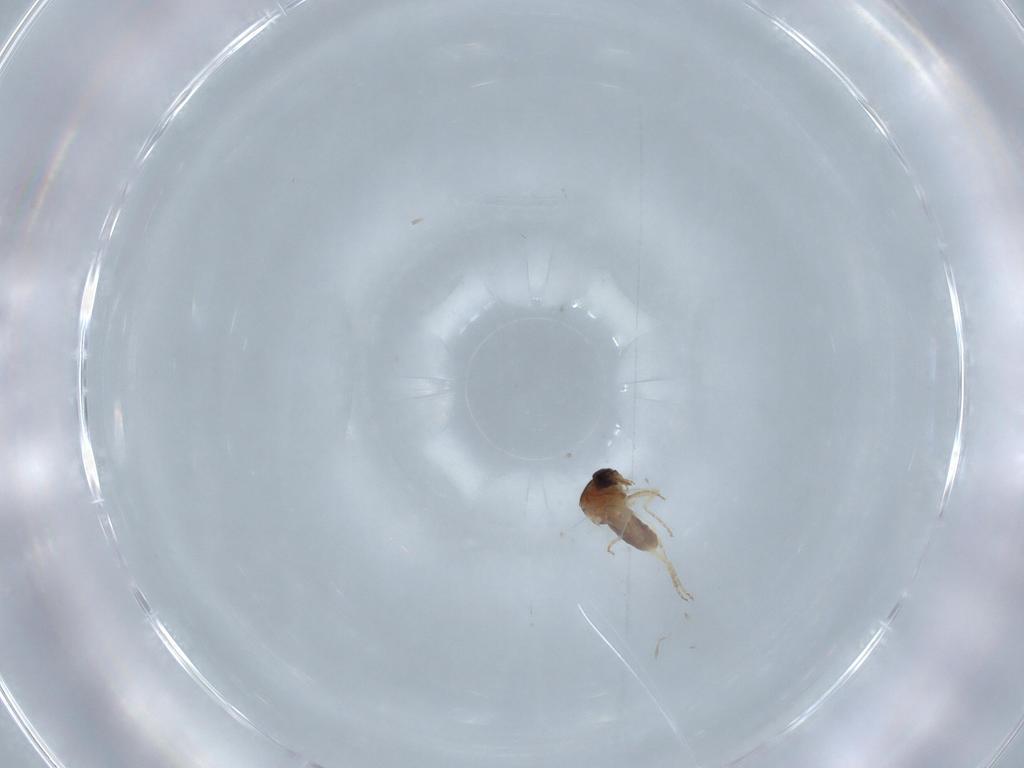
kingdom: Animalia
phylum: Arthropoda
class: Insecta
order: Diptera
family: Ceratopogonidae
